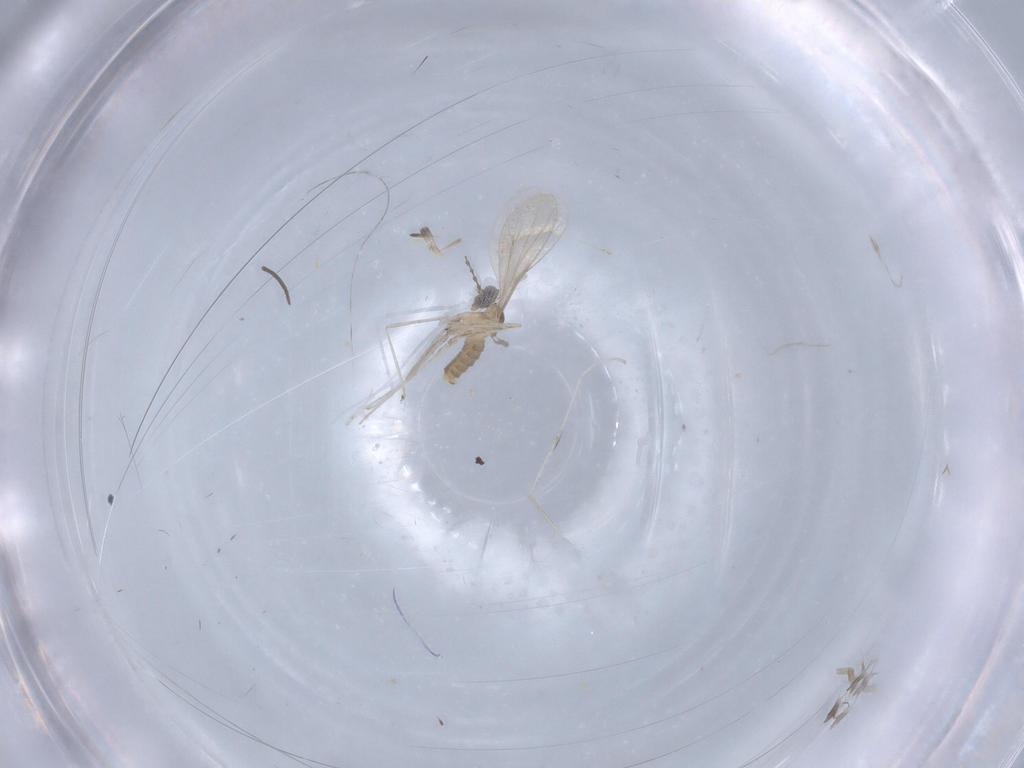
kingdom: Animalia
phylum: Arthropoda
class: Insecta
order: Diptera
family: Cecidomyiidae
